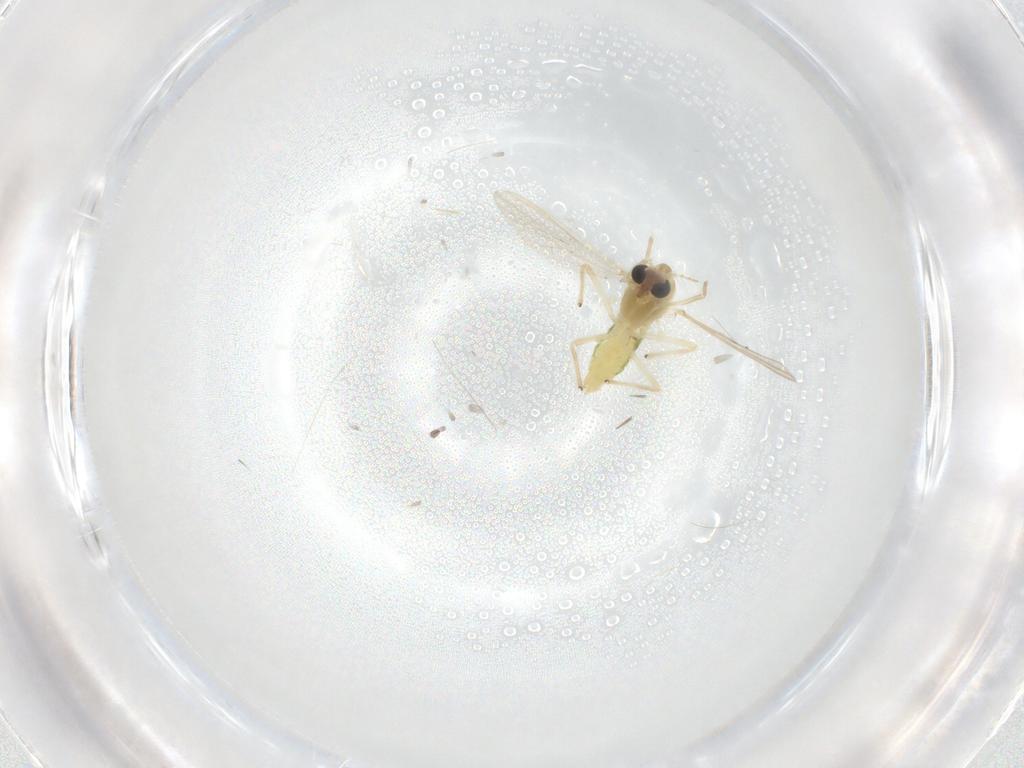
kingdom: Animalia
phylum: Arthropoda
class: Insecta
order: Diptera
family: Chironomidae
